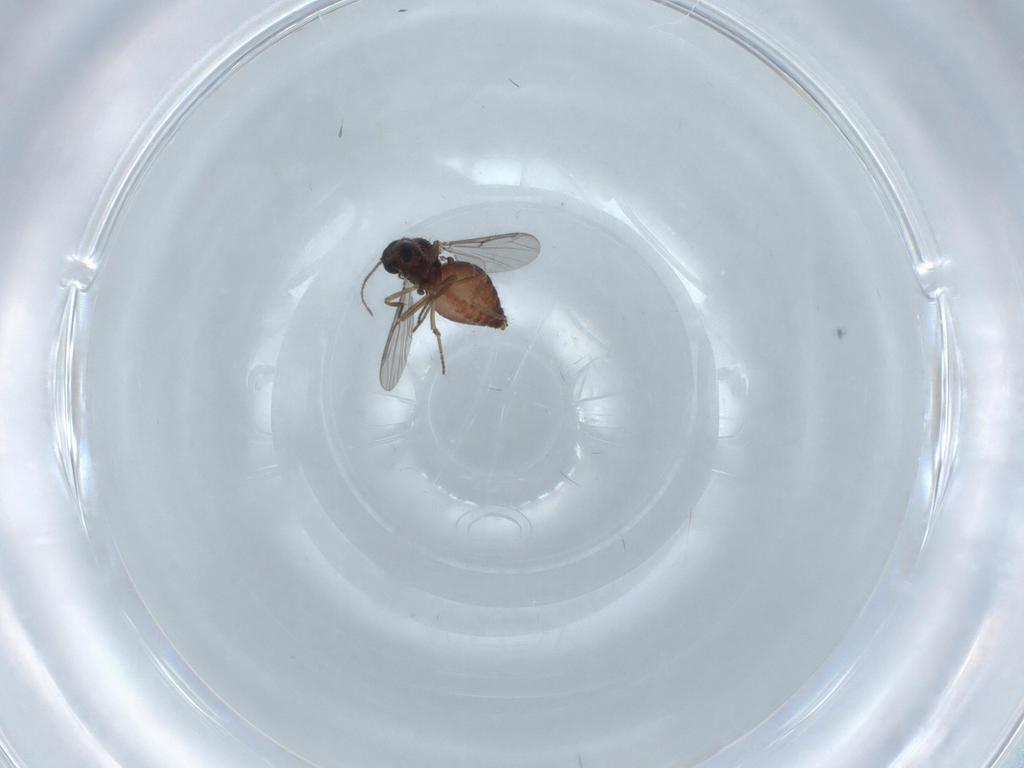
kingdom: Animalia
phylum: Arthropoda
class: Insecta
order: Diptera
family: Ceratopogonidae
